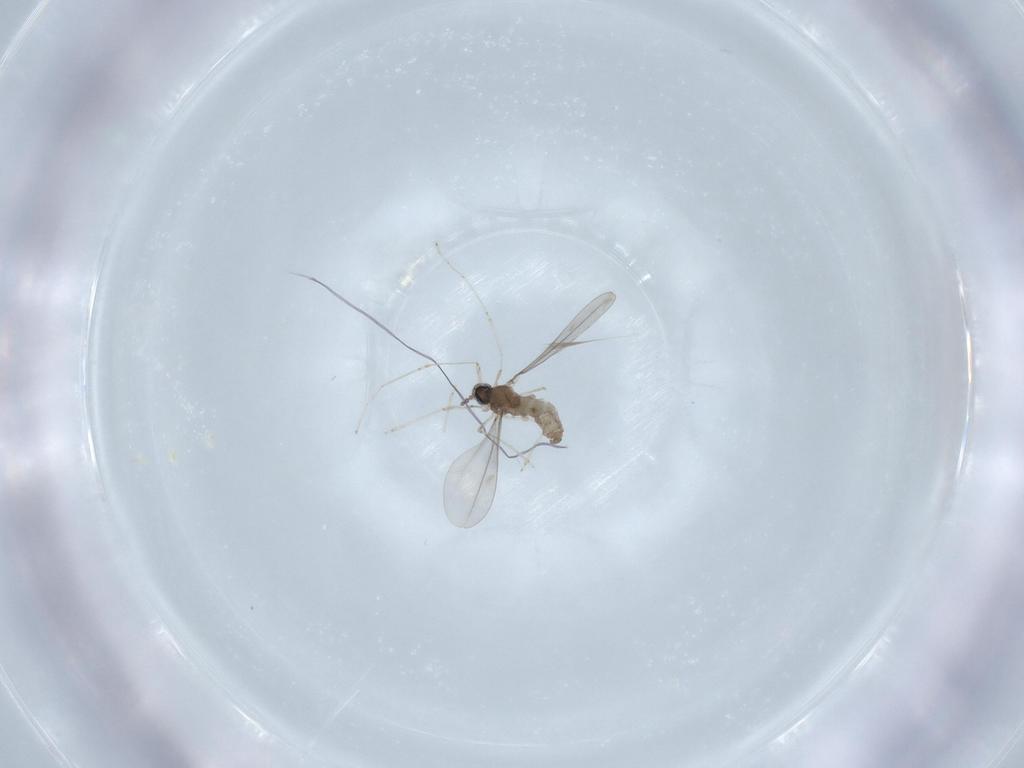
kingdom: Animalia
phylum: Arthropoda
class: Insecta
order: Diptera
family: Cecidomyiidae
